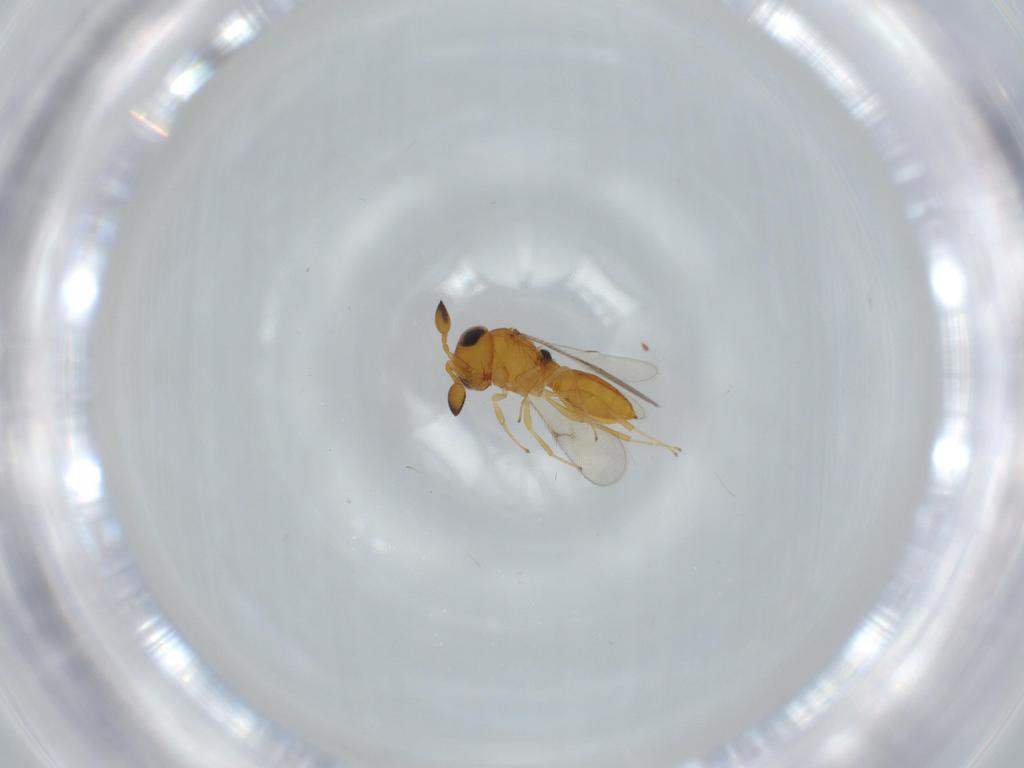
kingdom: Animalia
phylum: Arthropoda
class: Insecta
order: Hymenoptera
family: Scelionidae
